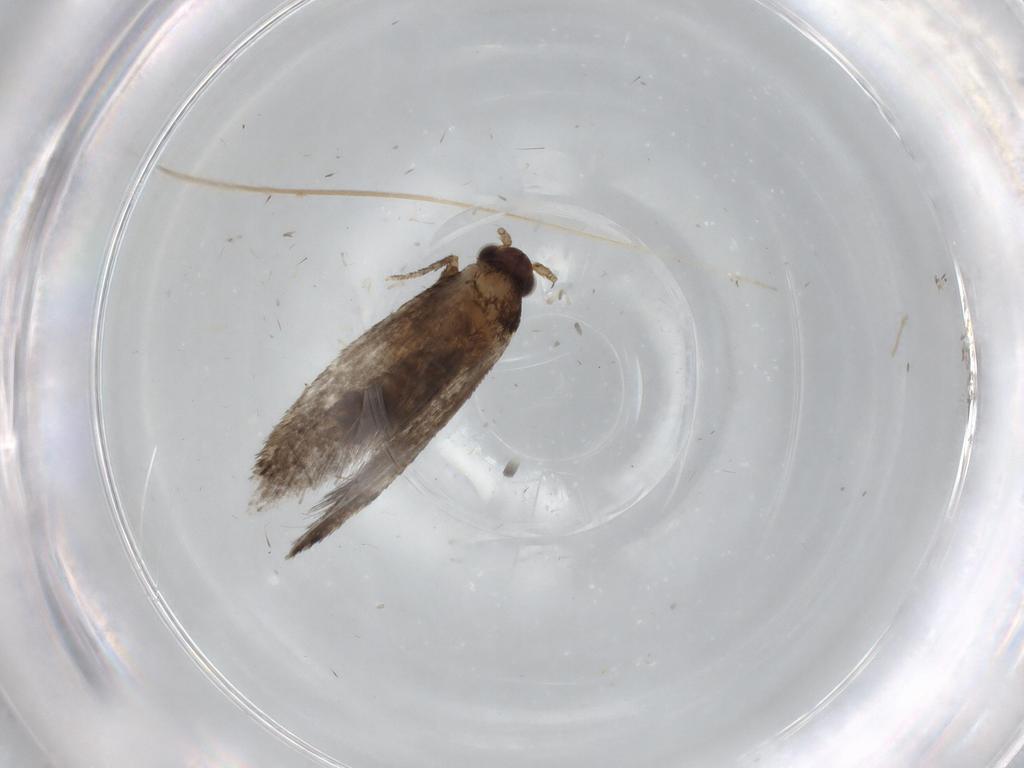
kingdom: Animalia
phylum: Arthropoda
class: Insecta
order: Lepidoptera
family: Tineidae
